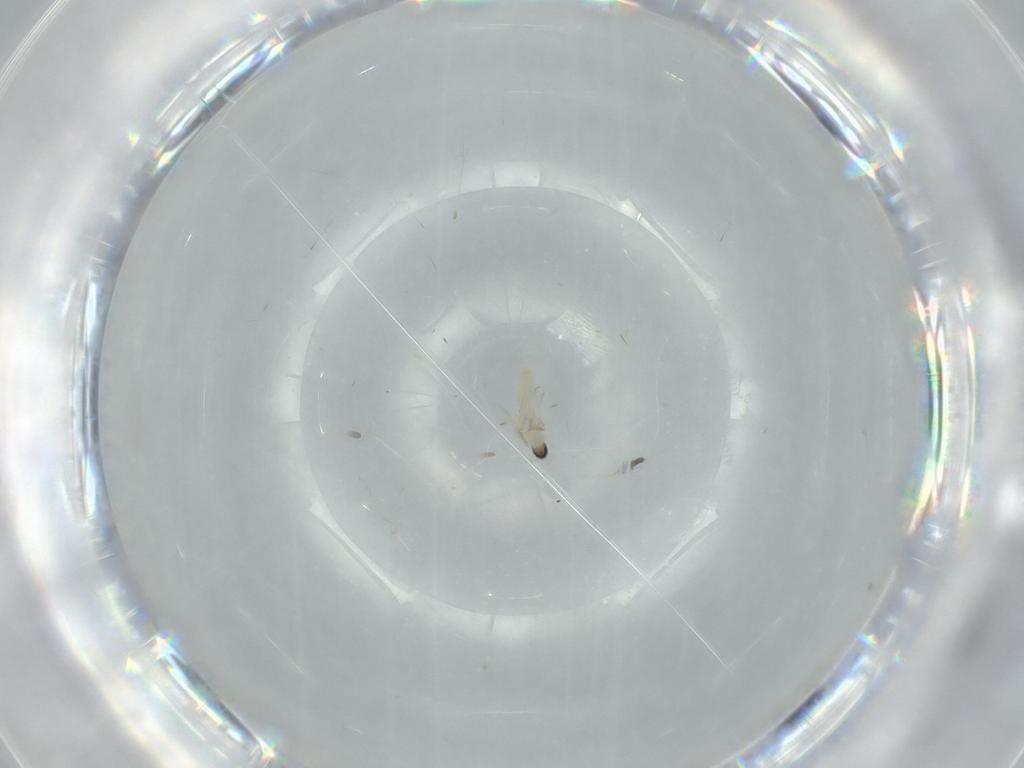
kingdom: Animalia
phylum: Arthropoda
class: Insecta
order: Diptera
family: Cecidomyiidae
